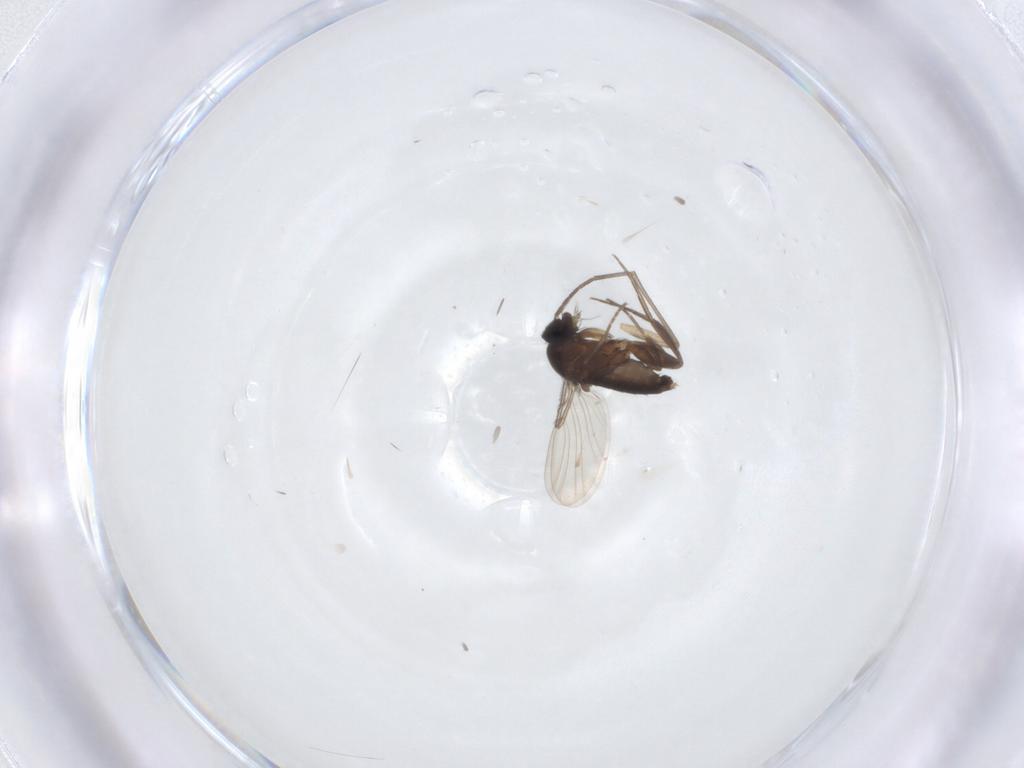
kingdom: Animalia
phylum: Arthropoda
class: Insecta
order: Diptera
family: Phoridae
